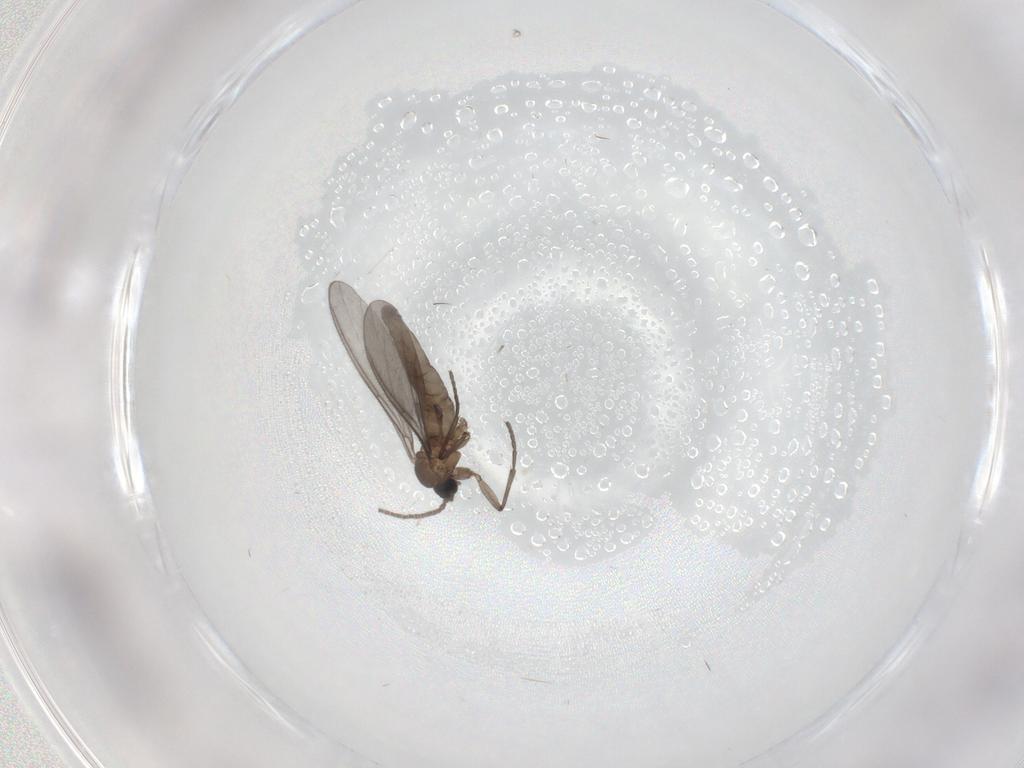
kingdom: Animalia
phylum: Arthropoda
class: Insecta
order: Diptera
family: Sciaridae
